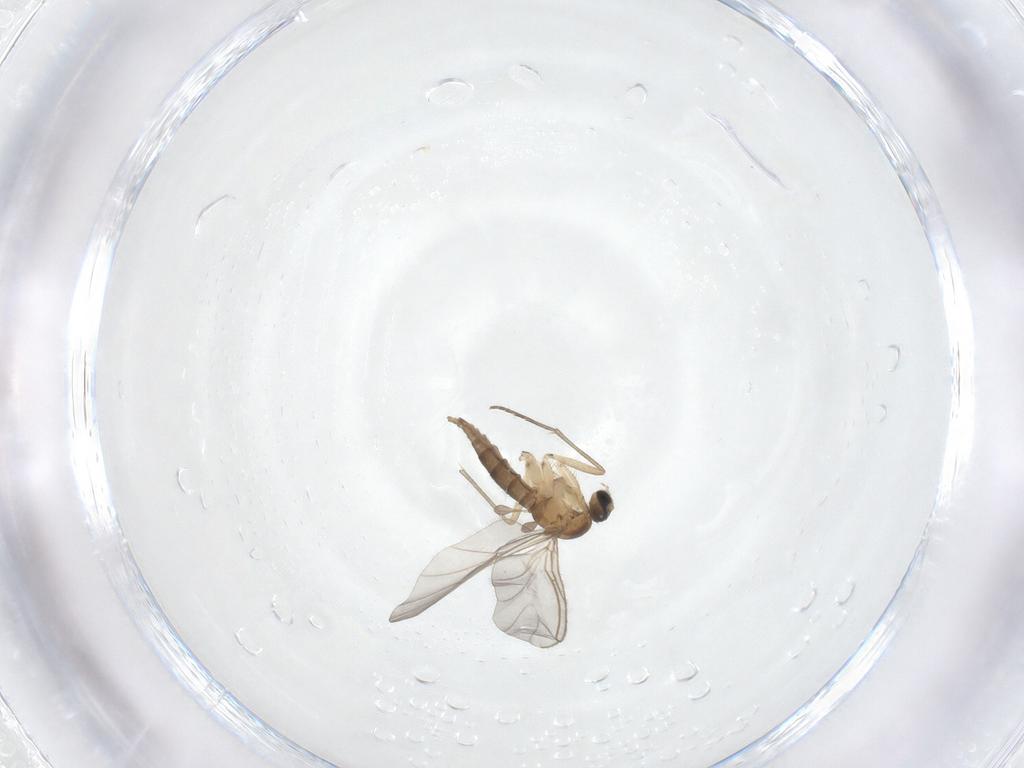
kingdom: Animalia
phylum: Arthropoda
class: Insecta
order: Diptera
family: Sciaridae
